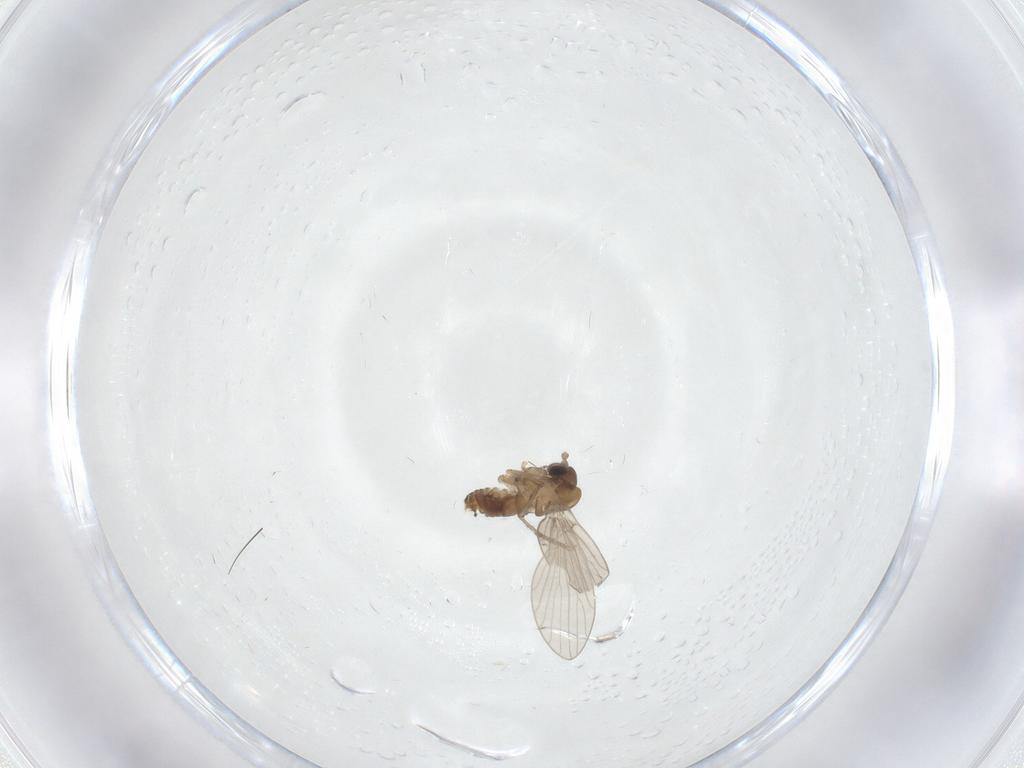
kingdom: Animalia
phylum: Arthropoda
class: Insecta
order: Diptera
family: Psychodidae
